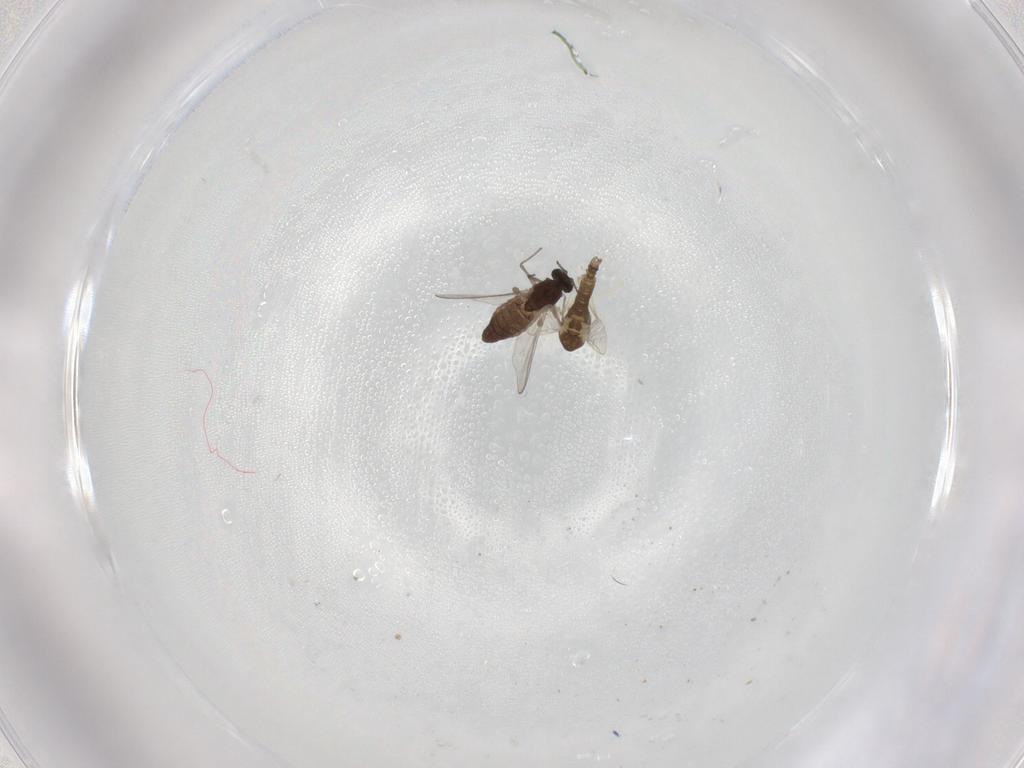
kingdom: Animalia
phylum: Arthropoda
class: Insecta
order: Diptera
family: Chironomidae
